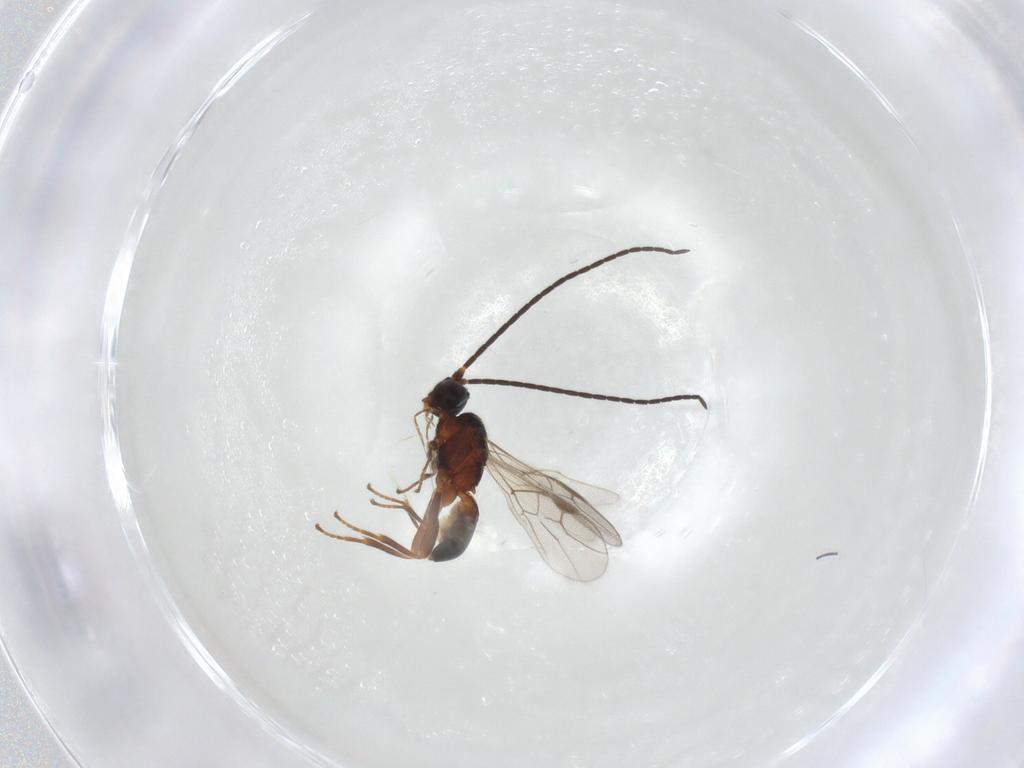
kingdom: Animalia
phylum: Arthropoda
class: Insecta
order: Hymenoptera
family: Braconidae
